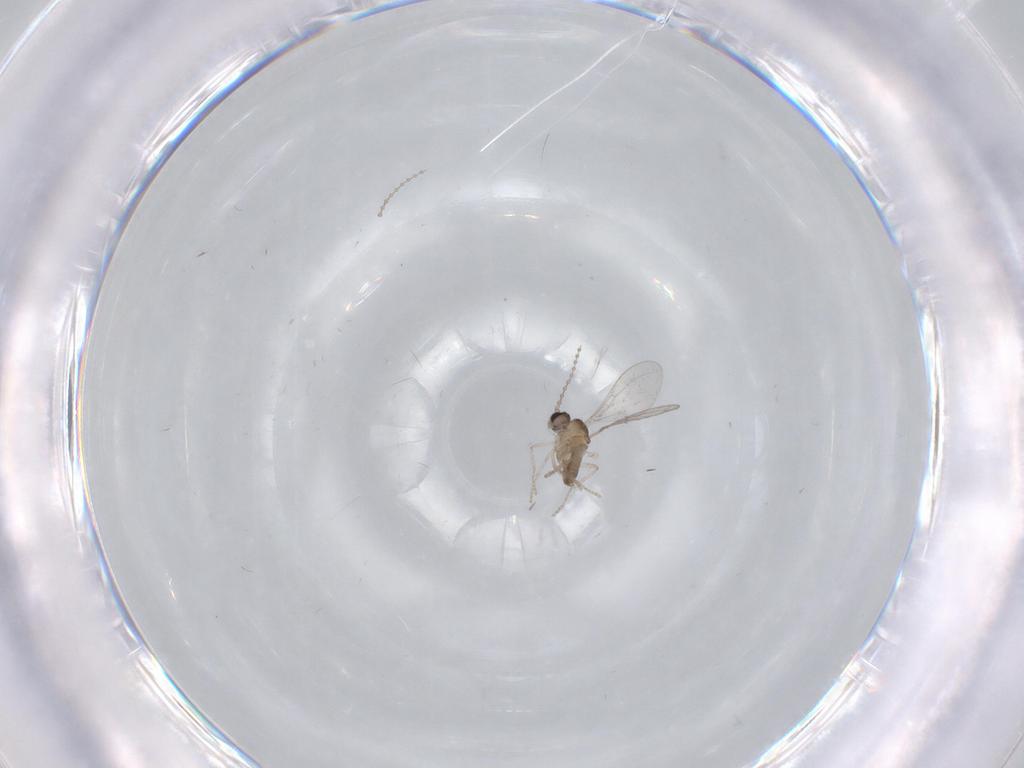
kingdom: Animalia
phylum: Arthropoda
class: Insecta
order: Diptera
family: Cecidomyiidae
